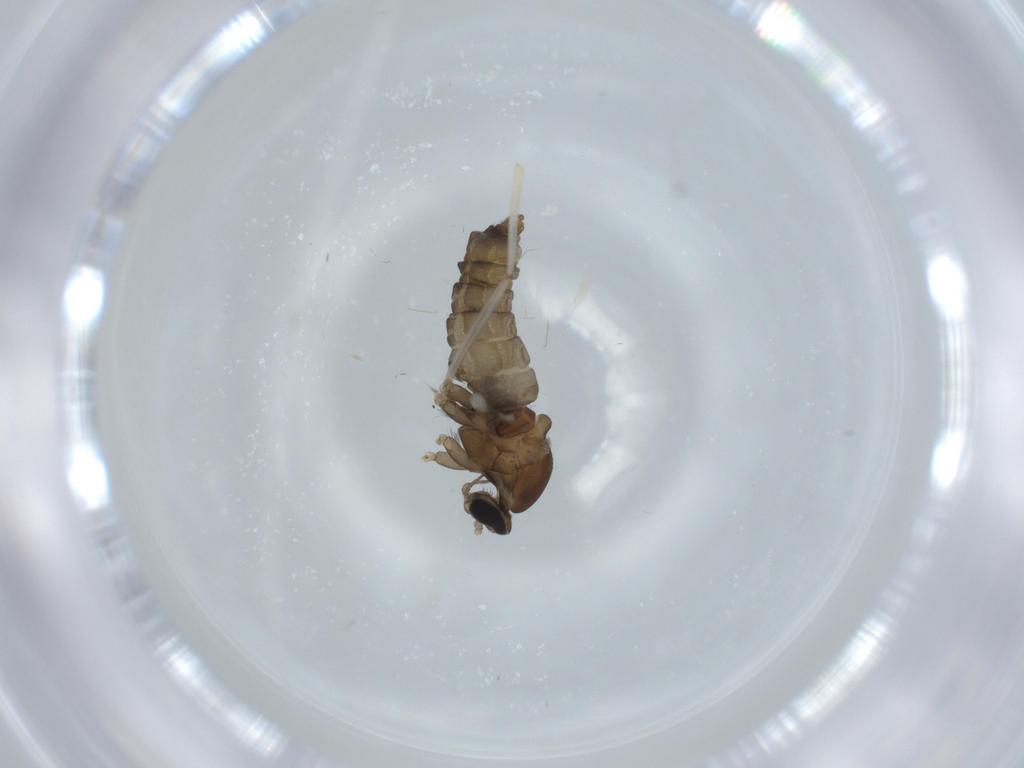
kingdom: Animalia
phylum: Arthropoda
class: Insecta
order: Diptera
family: Cecidomyiidae
